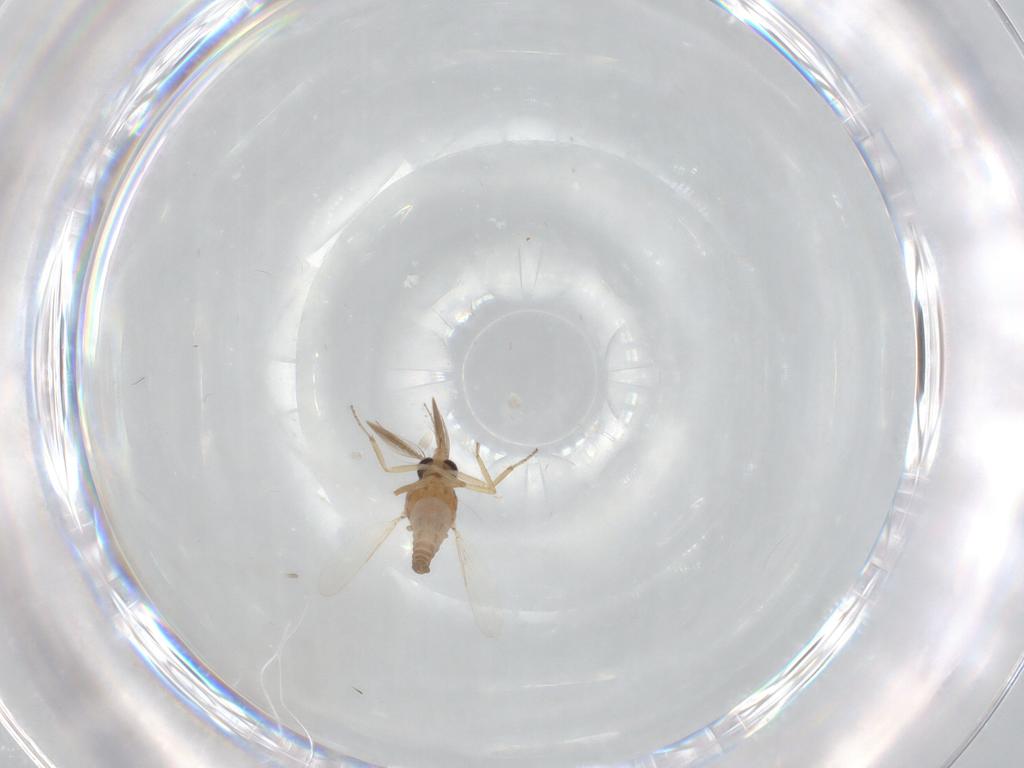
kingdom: Animalia
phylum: Arthropoda
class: Insecta
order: Diptera
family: Ceratopogonidae
